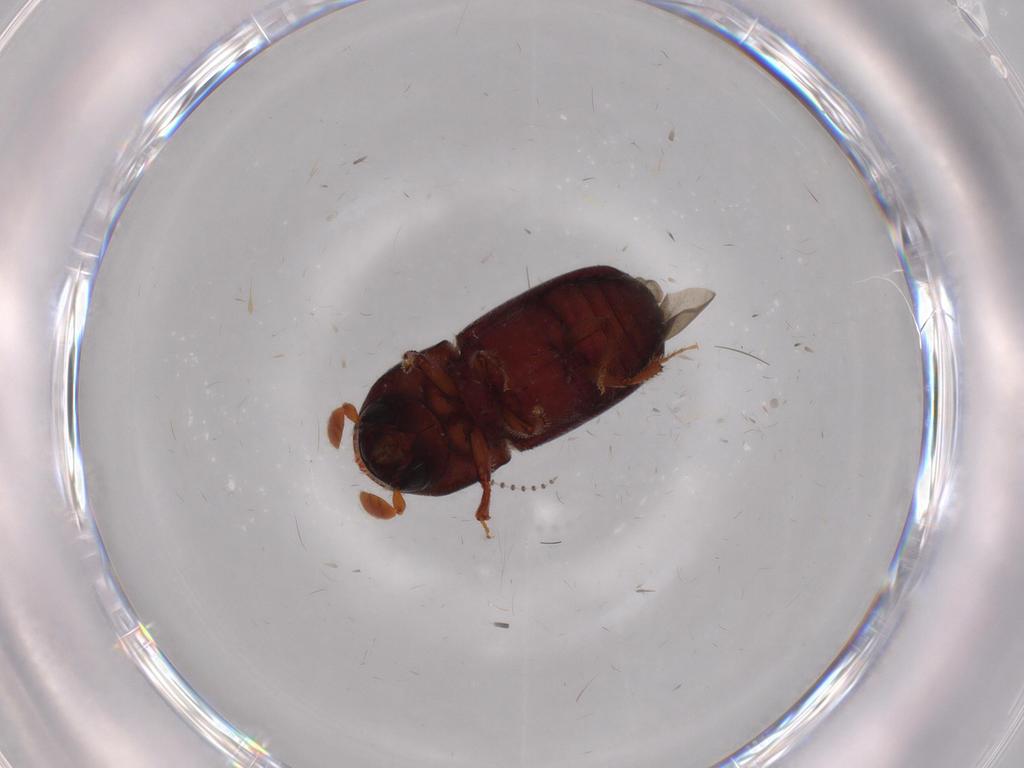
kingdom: Animalia
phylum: Arthropoda
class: Insecta
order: Coleoptera
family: Curculionidae
